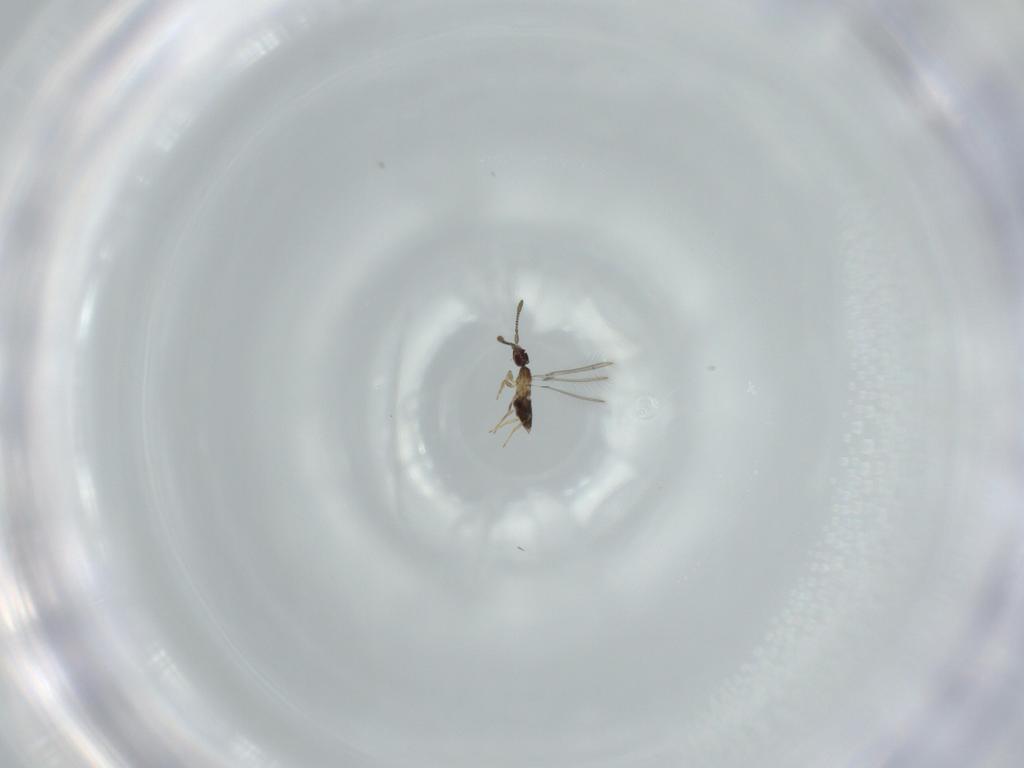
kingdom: Animalia
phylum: Arthropoda
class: Insecta
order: Hymenoptera
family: Mymaridae
